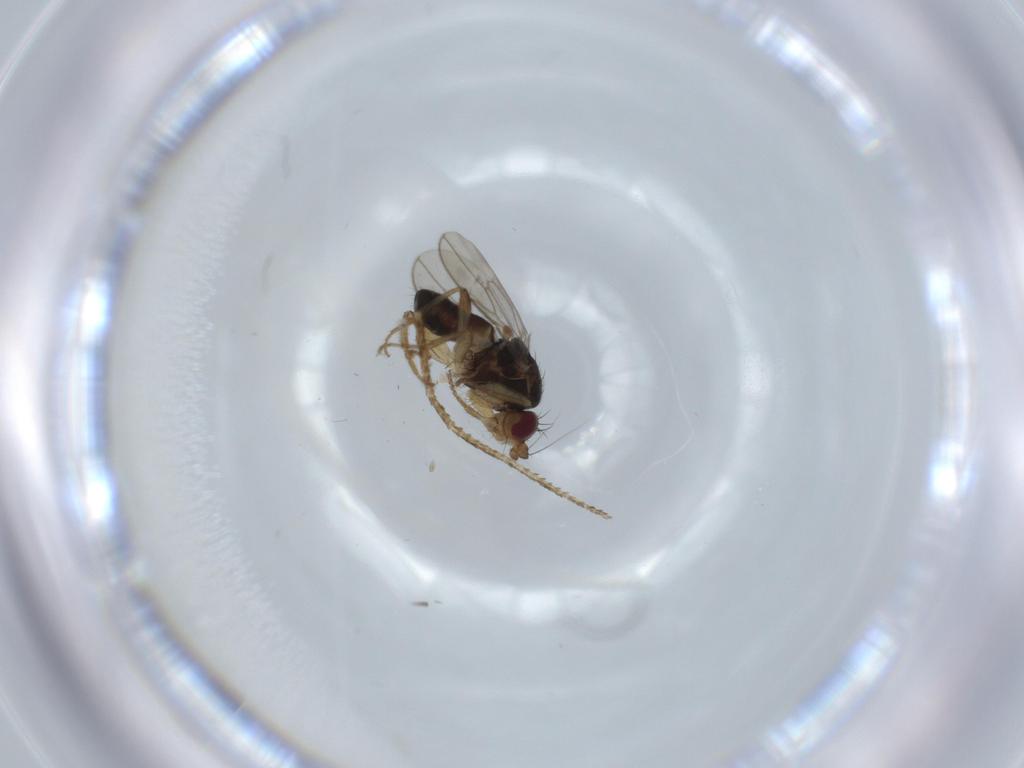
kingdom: Animalia
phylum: Arthropoda
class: Insecta
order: Diptera
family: Sphaeroceridae
